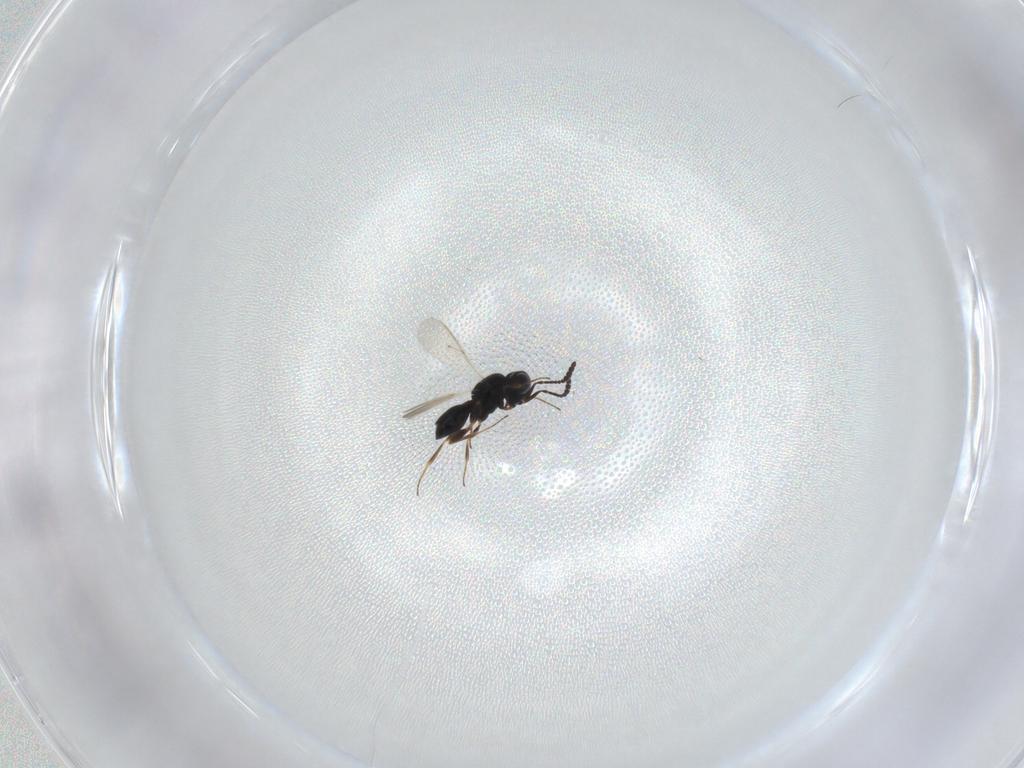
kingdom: Animalia
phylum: Arthropoda
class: Insecta
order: Hymenoptera
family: Scelionidae
